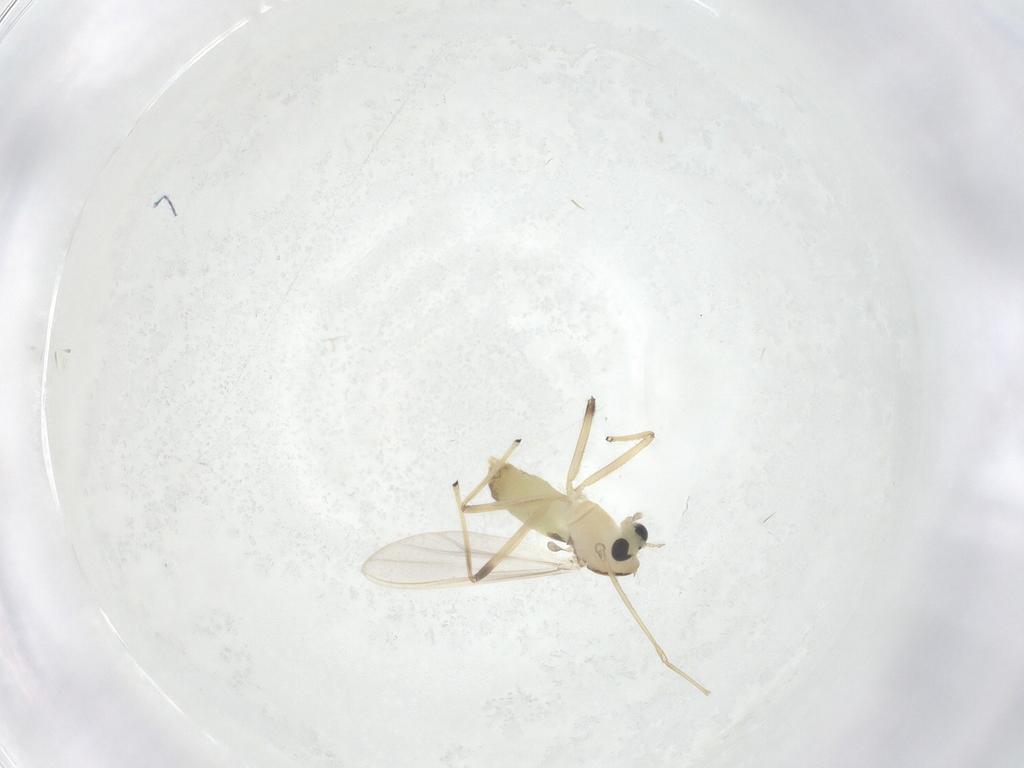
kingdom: Animalia
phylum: Arthropoda
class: Insecta
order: Diptera
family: Chironomidae
